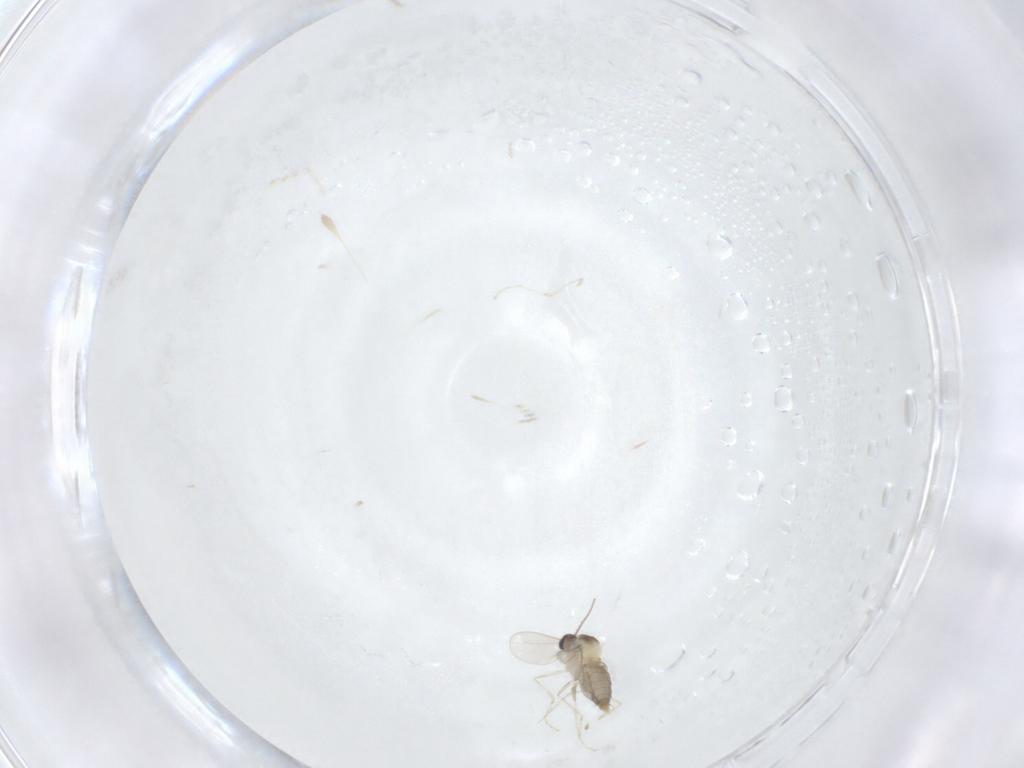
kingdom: Animalia
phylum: Arthropoda
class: Insecta
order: Diptera
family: Cecidomyiidae
